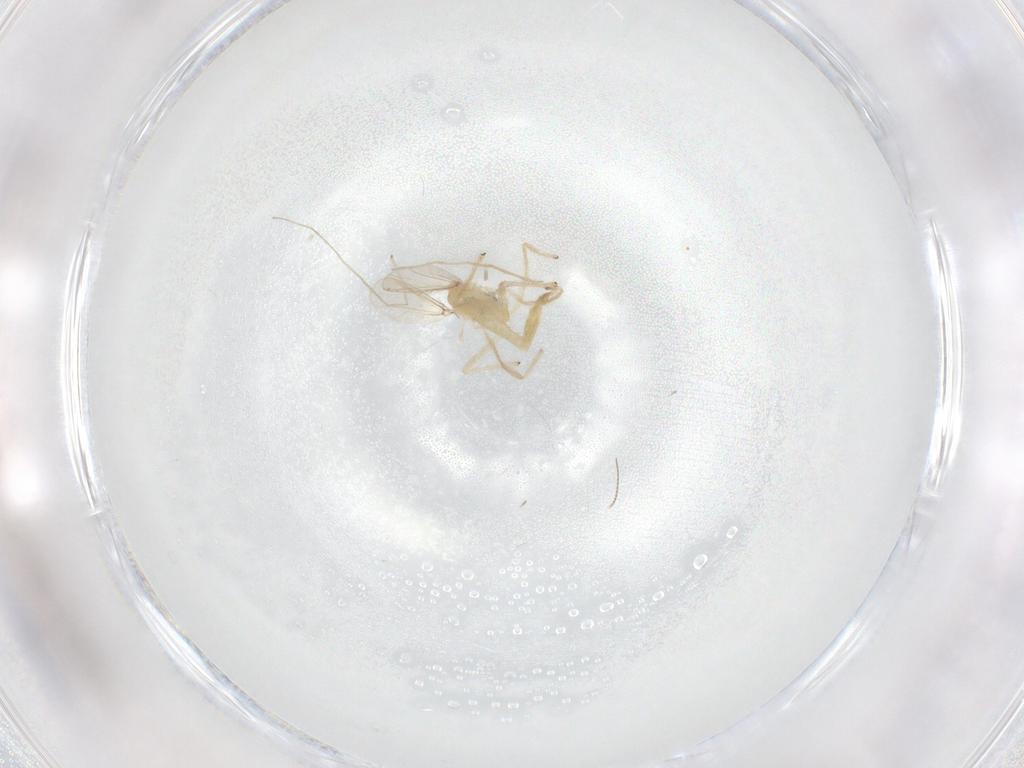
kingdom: Animalia
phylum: Arthropoda
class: Insecta
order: Diptera
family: Chironomidae
